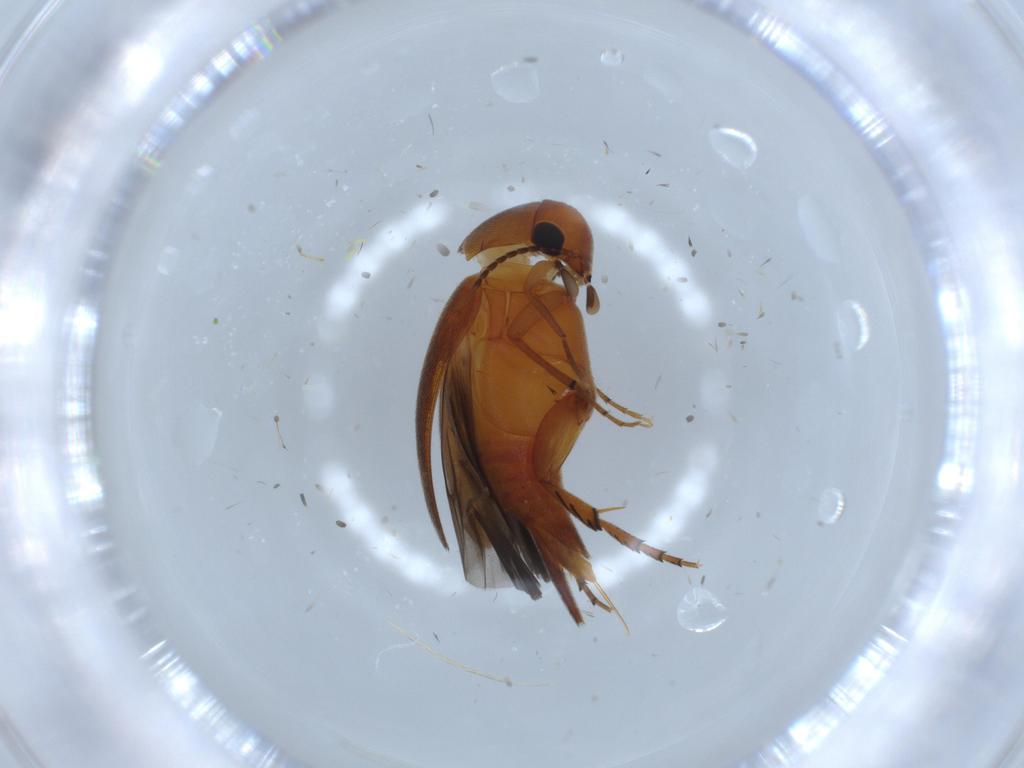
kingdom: Animalia
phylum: Arthropoda
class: Insecta
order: Coleoptera
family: Mordellidae
